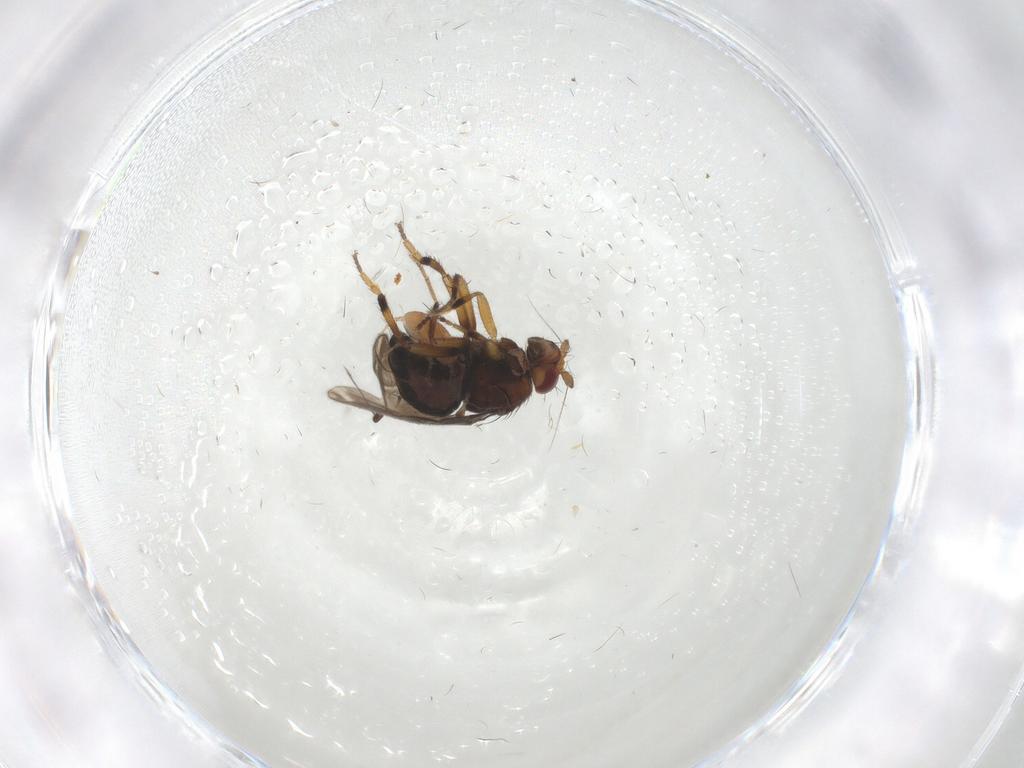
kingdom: Animalia
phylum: Arthropoda
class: Insecta
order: Diptera
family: Sphaeroceridae
